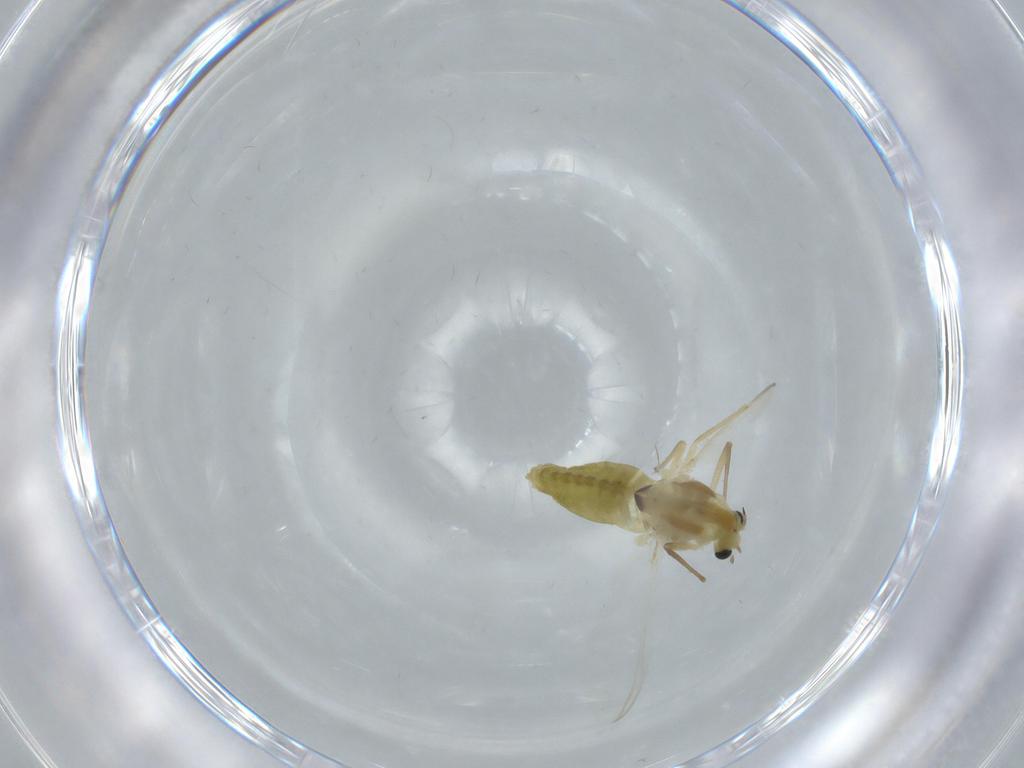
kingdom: Animalia
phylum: Arthropoda
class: Insecta
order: Diptera
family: Chironomidae
